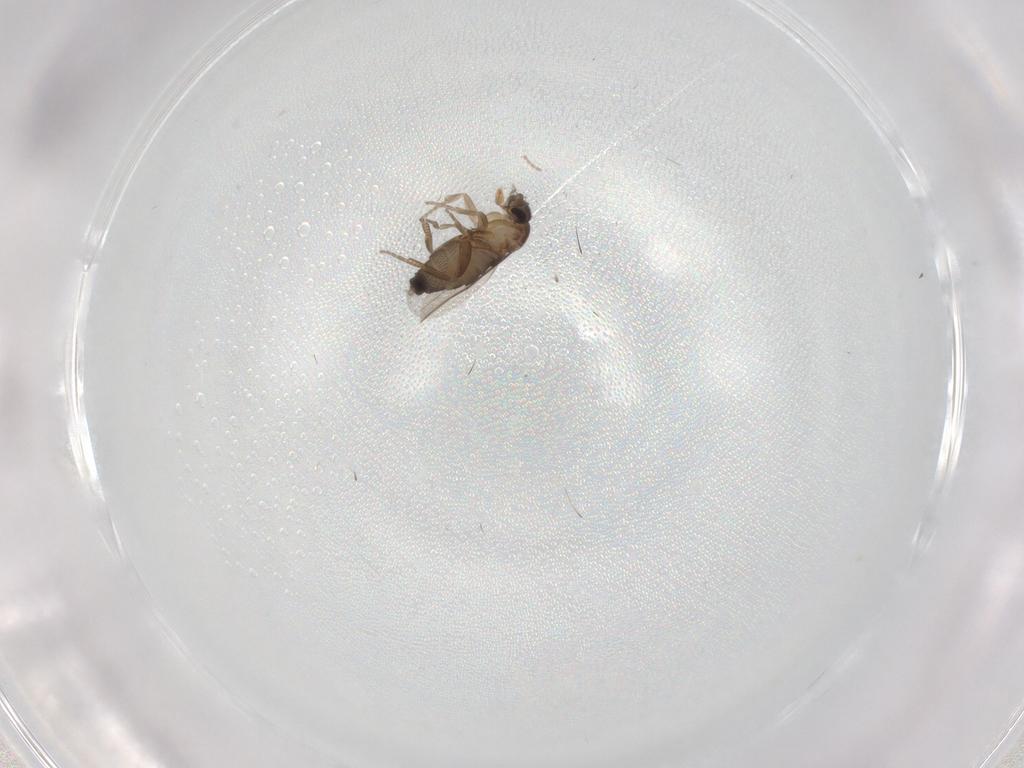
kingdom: Animalia
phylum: Arthropoda
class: Insecta
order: Diptera
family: Phoridae
